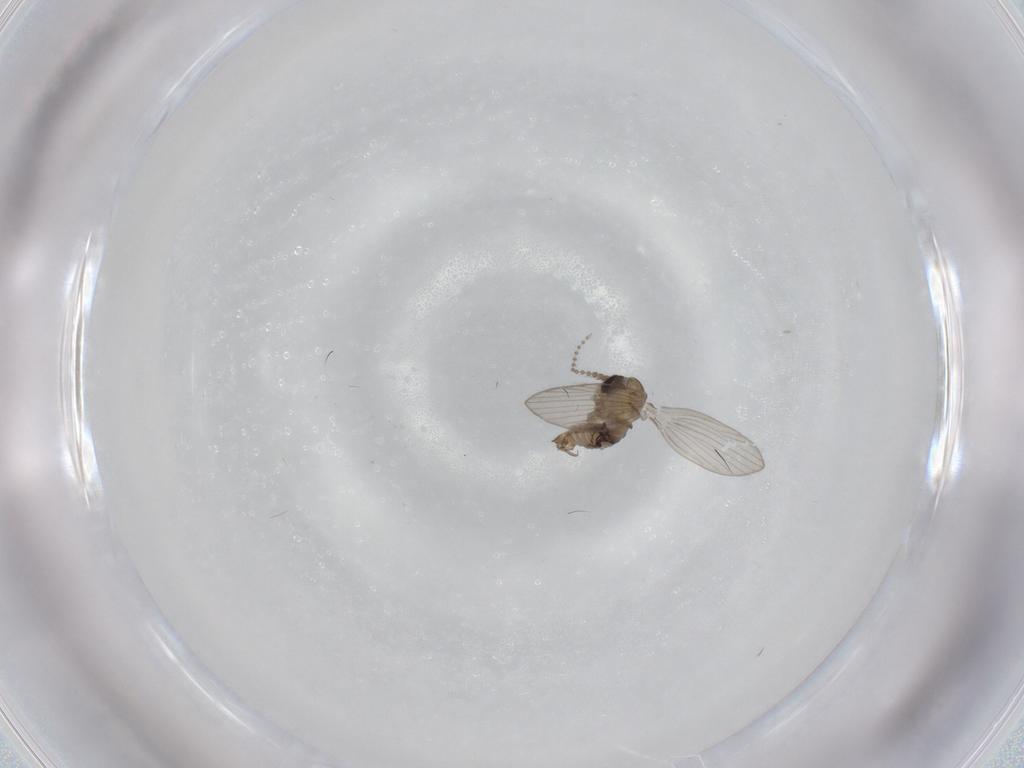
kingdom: Animalia
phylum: Arthropoda
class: Insecta
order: Diptera
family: Psychodidae
